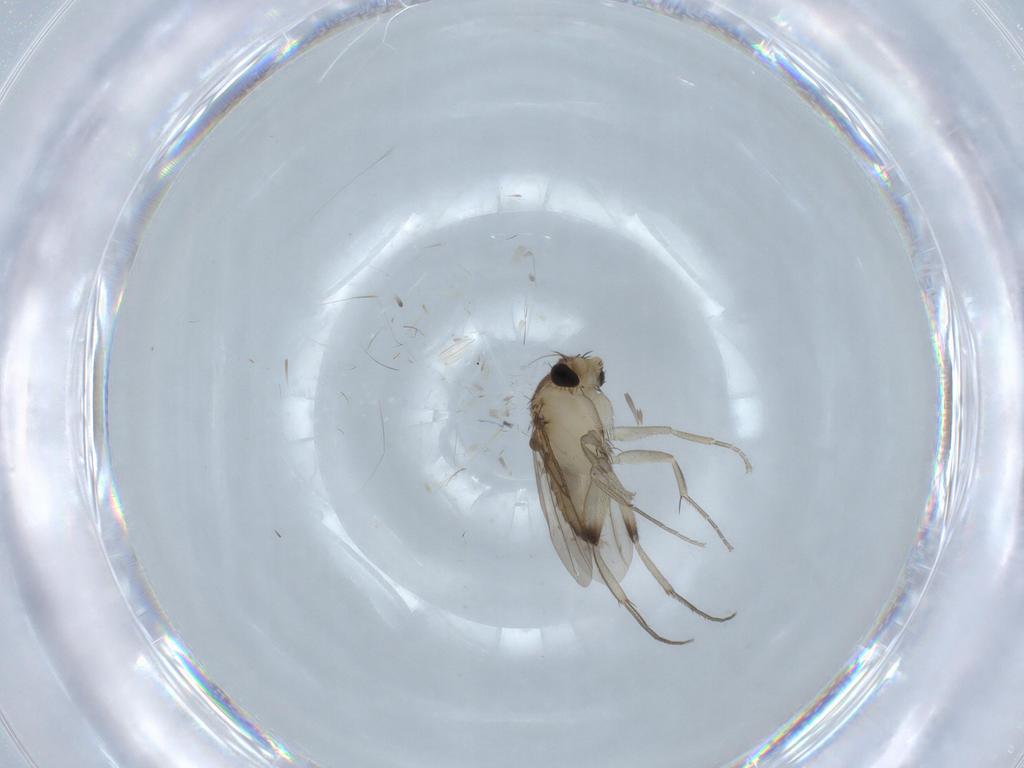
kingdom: Animalia
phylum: Arthropoda
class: Insecta
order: Diptera
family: Phoridae
